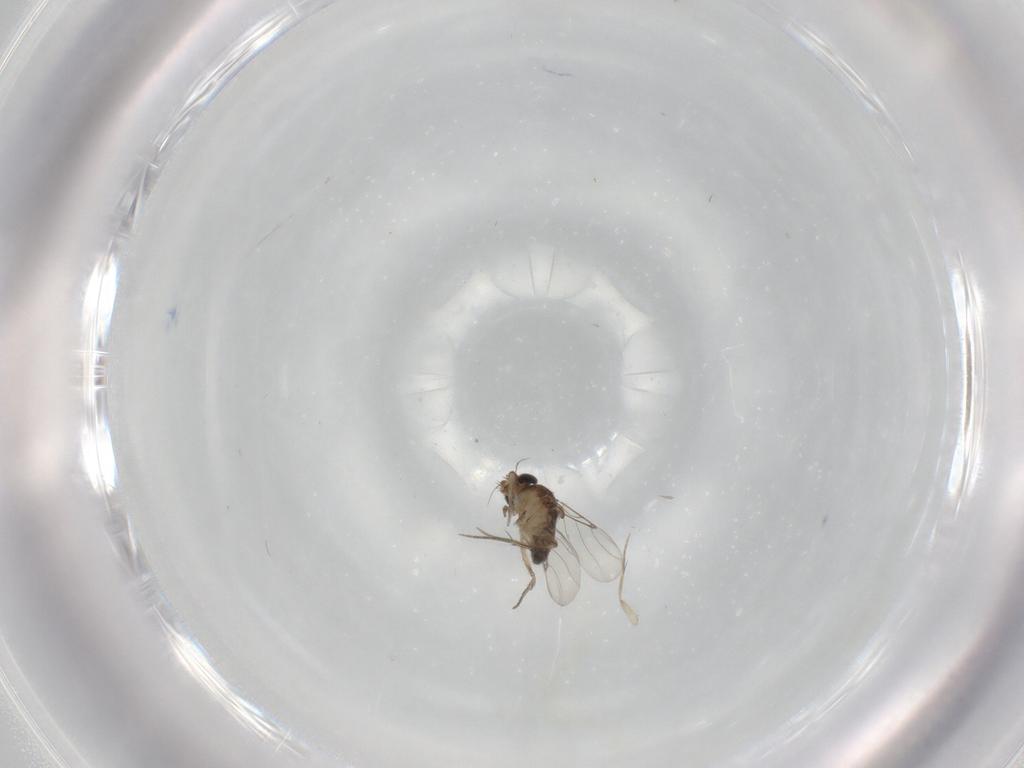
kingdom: Animalia
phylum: Arthropoda
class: Insecta
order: Diptera
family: Phoridae
